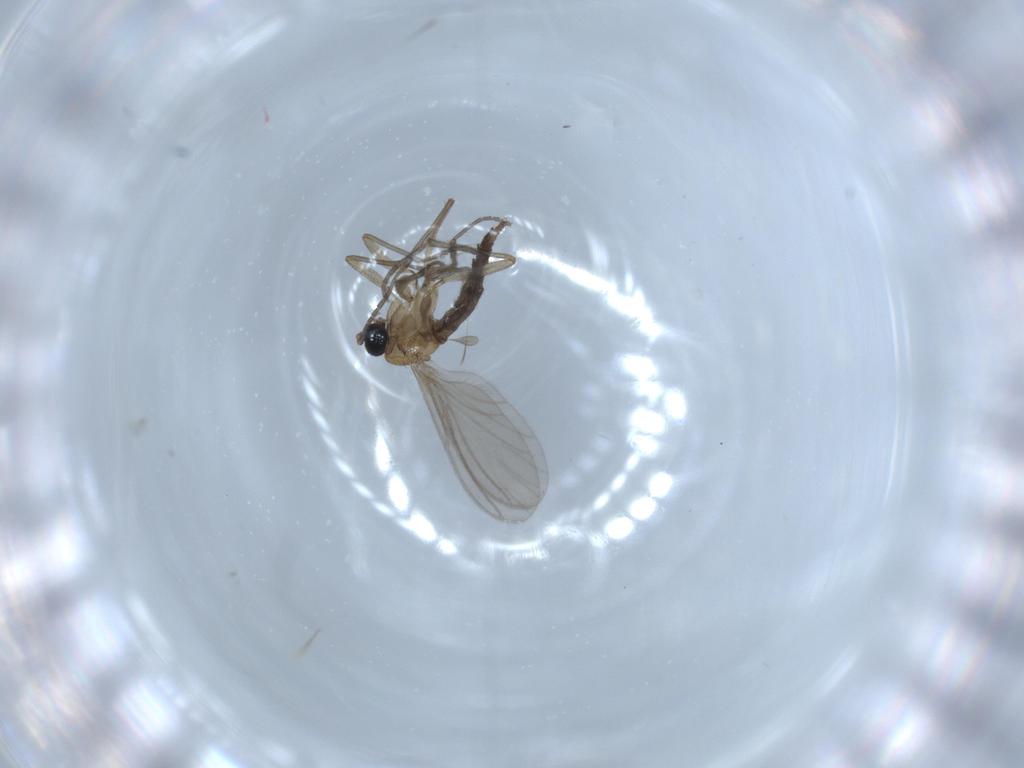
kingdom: Animalia
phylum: Arthropoda
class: Insecta
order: Diptera
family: Sciaridae
